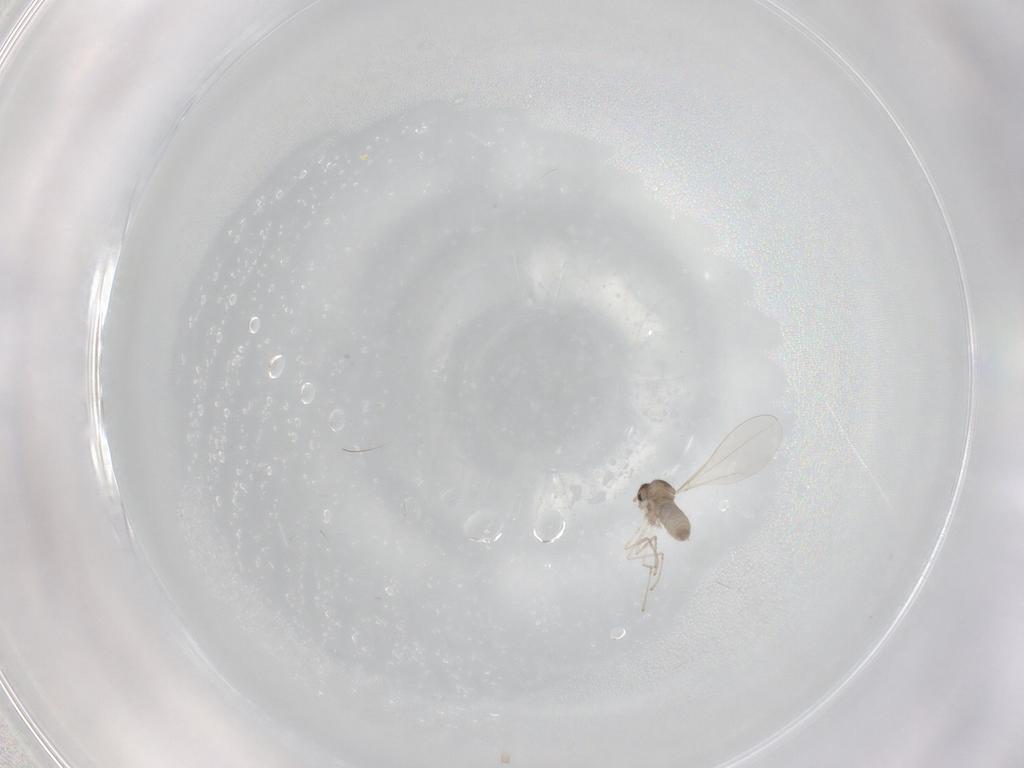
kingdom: Animalia
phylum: Arthropoda
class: Insecta
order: Diptera
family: Cecidomyiidae
